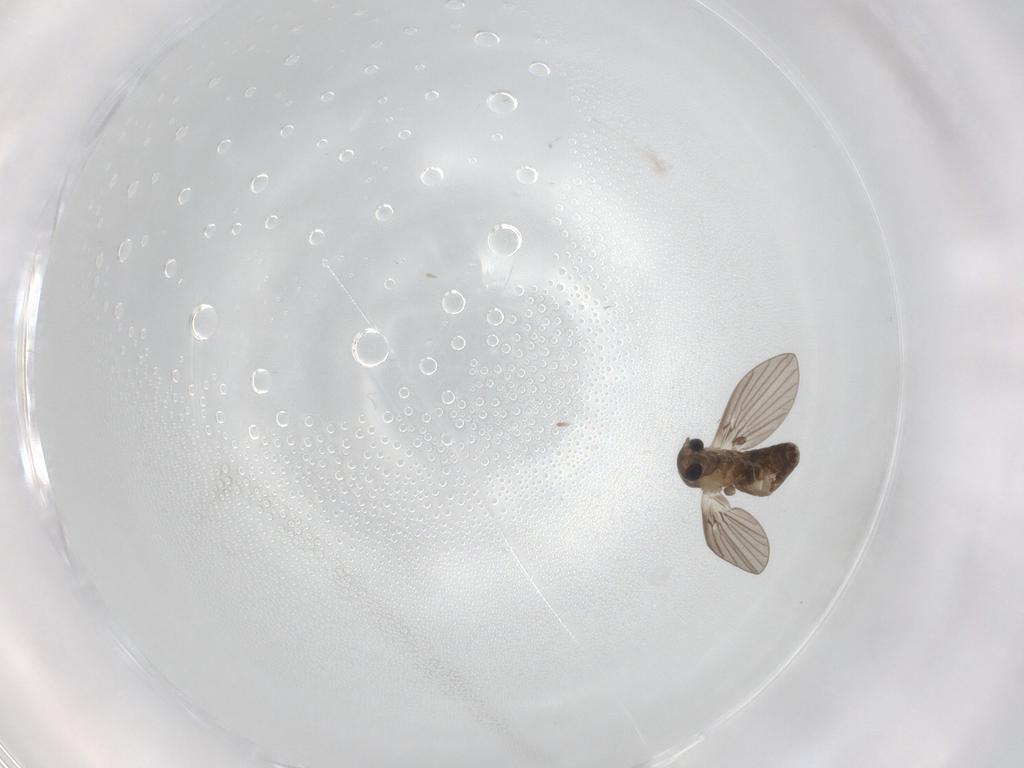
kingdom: Animalia
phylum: Arthropoda
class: Insecta
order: Diptera
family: Psychodidae
